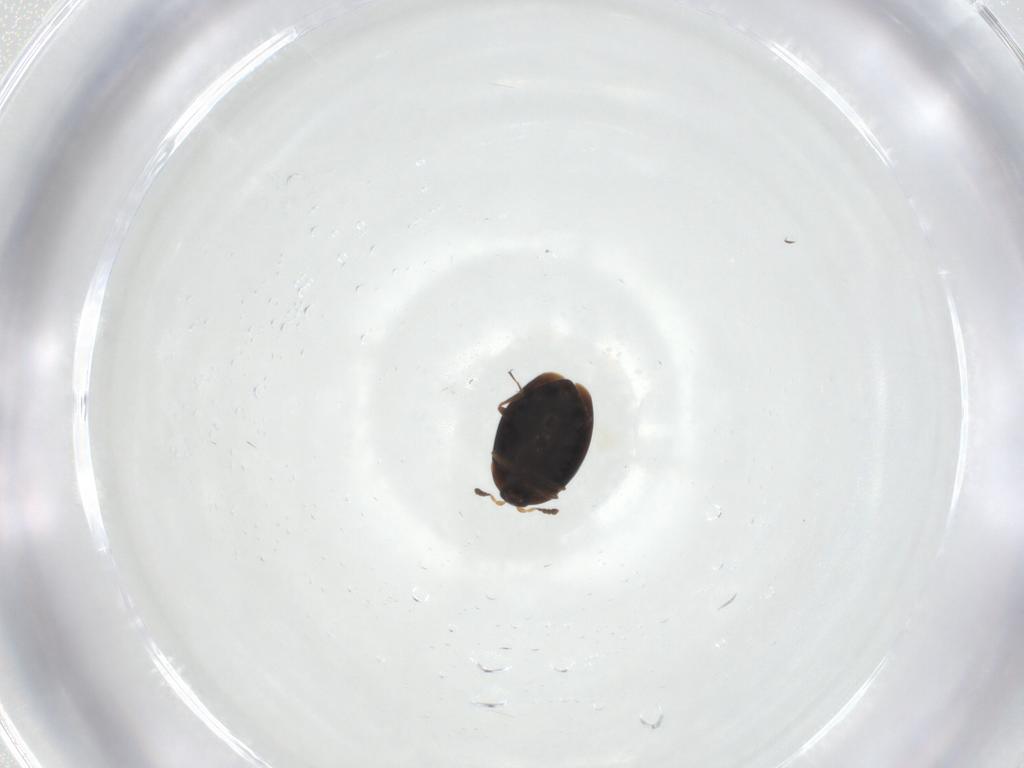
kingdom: Animalia
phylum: Arthropoda
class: Insecta
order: Coleoptera
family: Corylophidae
